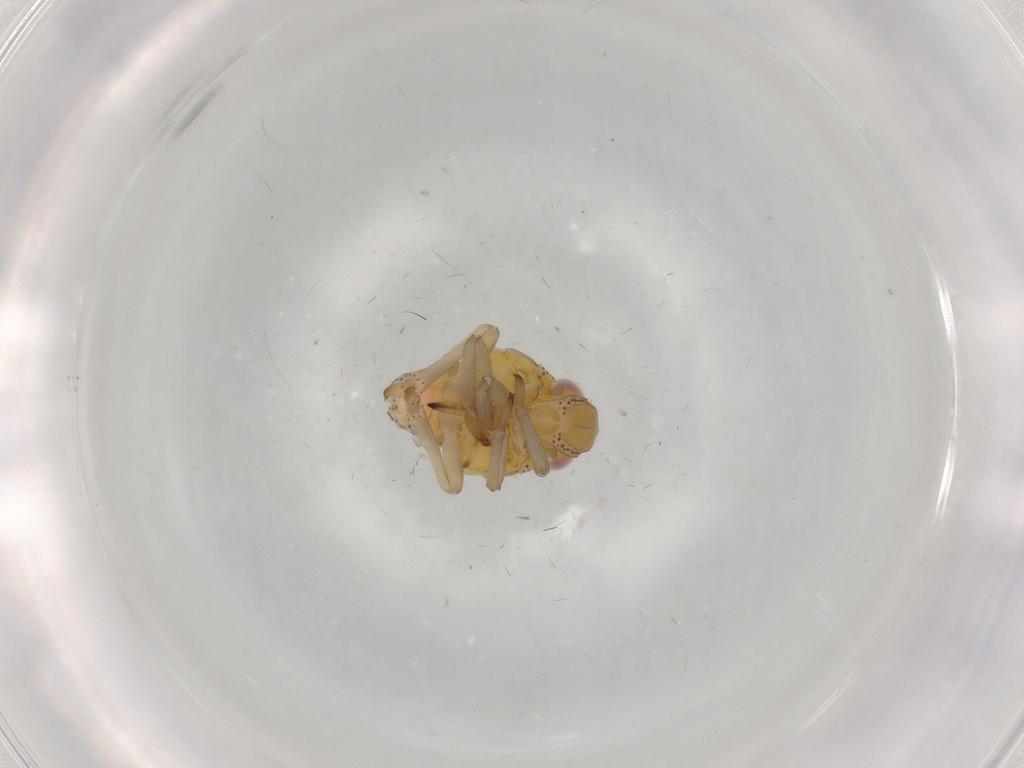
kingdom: Animalia
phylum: Arthropoda
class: Insecta
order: Hemiptera
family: Tropiduchidae
